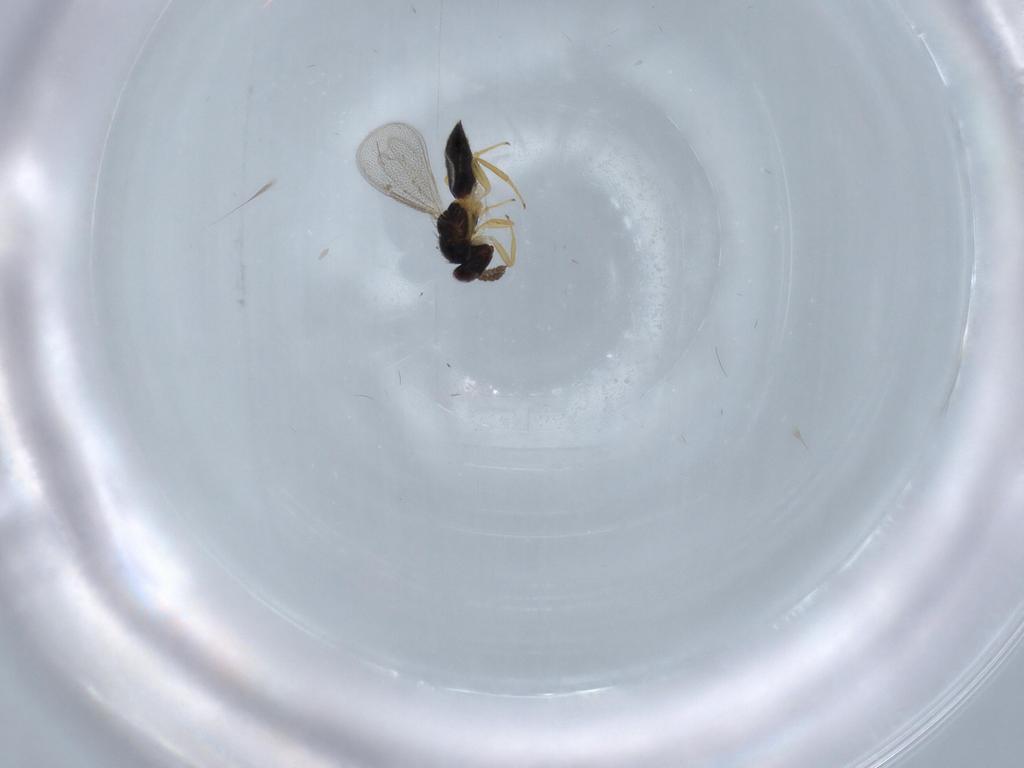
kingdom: Animalia
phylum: Arthropoda
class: Insecta
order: Hymenoptera
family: Eulophidae
